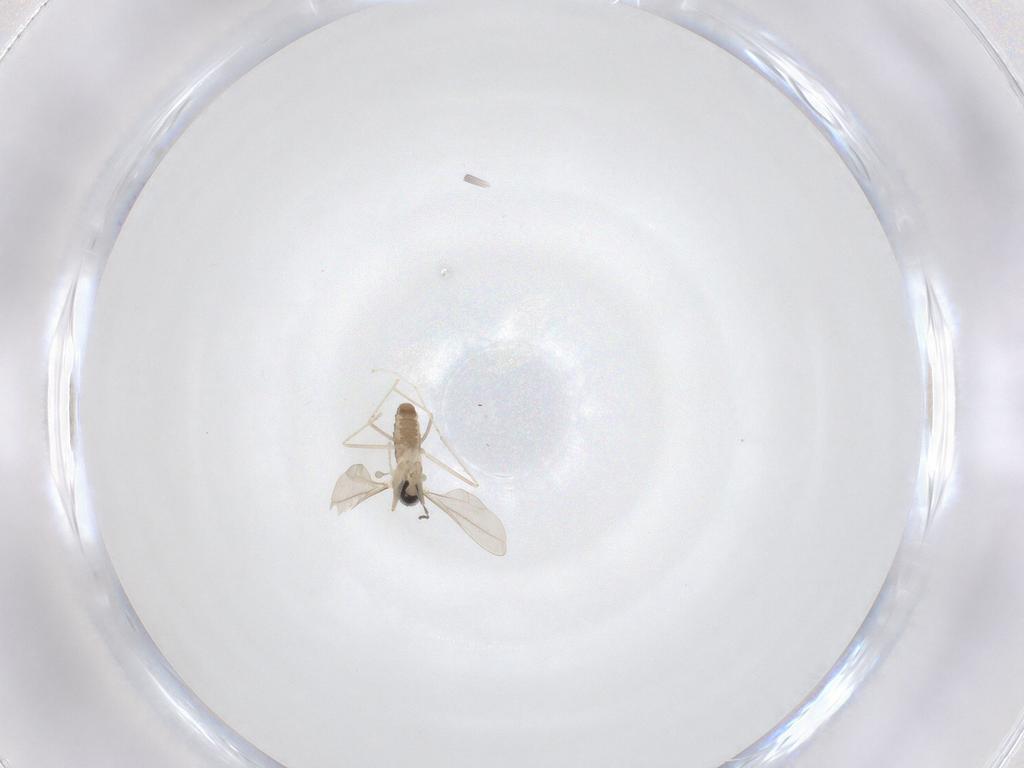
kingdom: Animalia
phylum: Arthropoda
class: Insecta
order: Diptera
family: Cecidomyiidae
